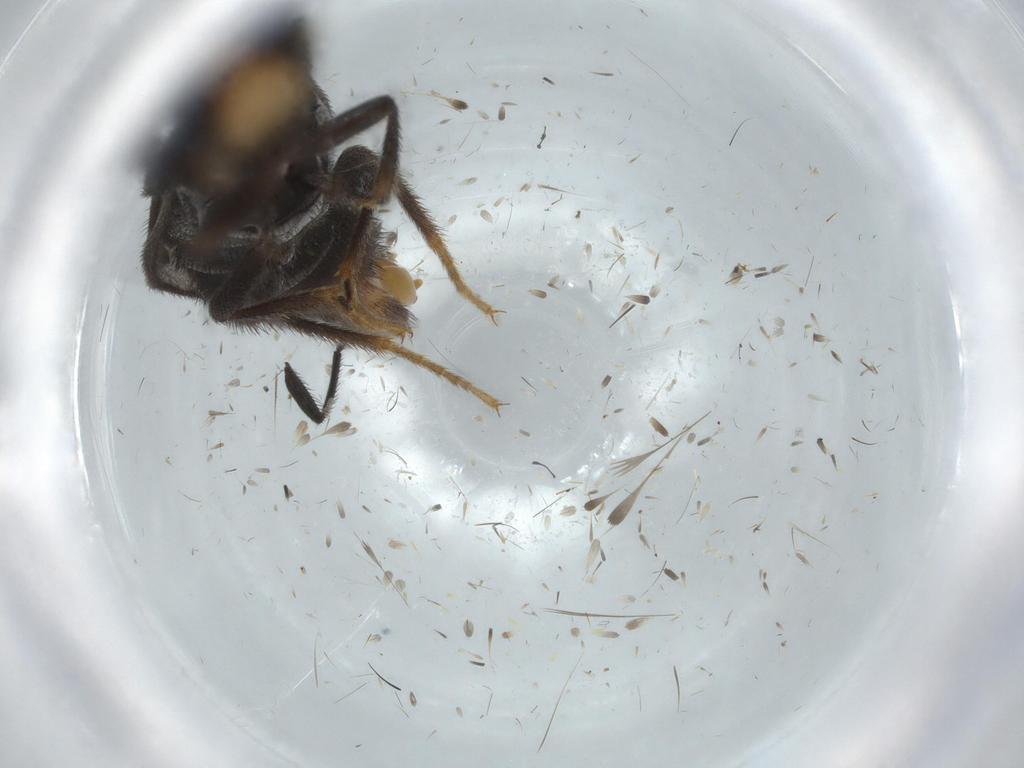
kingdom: Animalia
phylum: Arthropoda
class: Insecta
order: Coleoptera
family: Phengodidae
